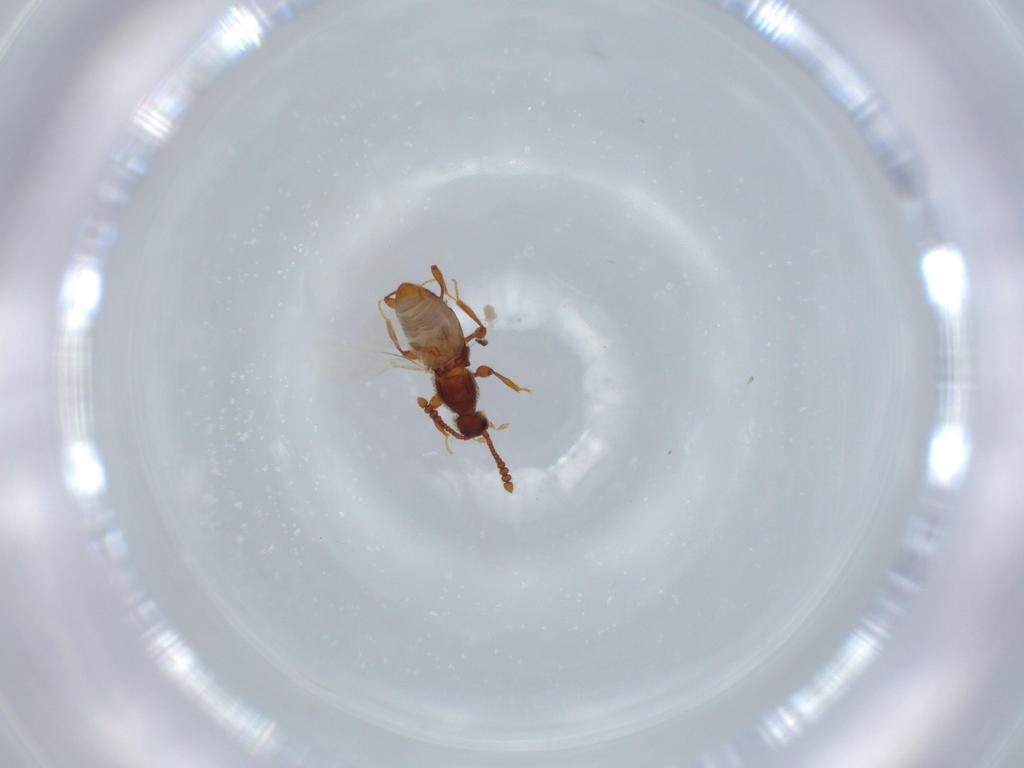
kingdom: Animalia
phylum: Arthropoda
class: Insecta
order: Coleoptera
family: Staphylinidae
